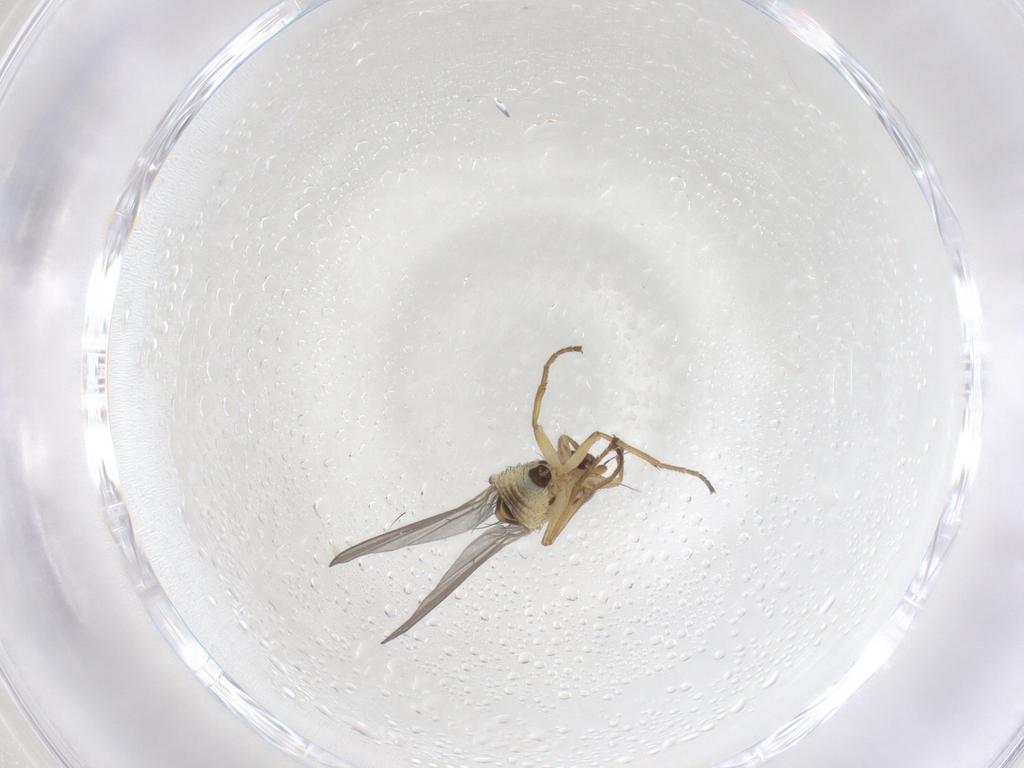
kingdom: Animalia
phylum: Arthropoda
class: Insecta
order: Diptera
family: Agromyzidae
